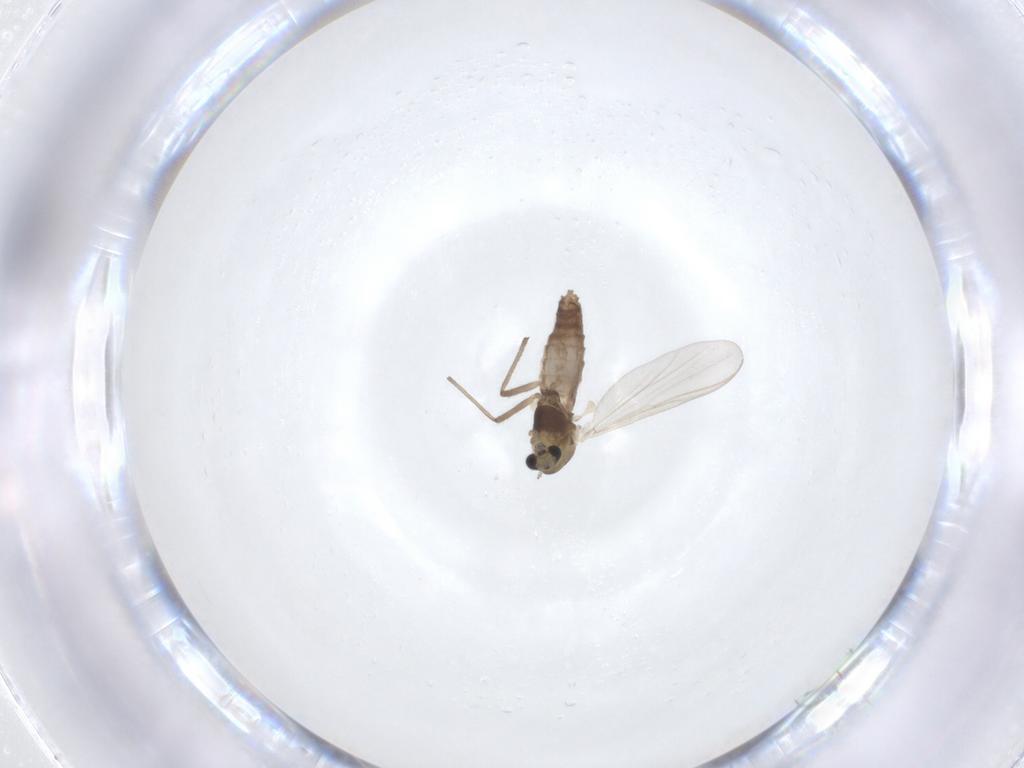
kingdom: Animalia
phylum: Arthropoda
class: Insecta
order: Diptera
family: Chironomidae
